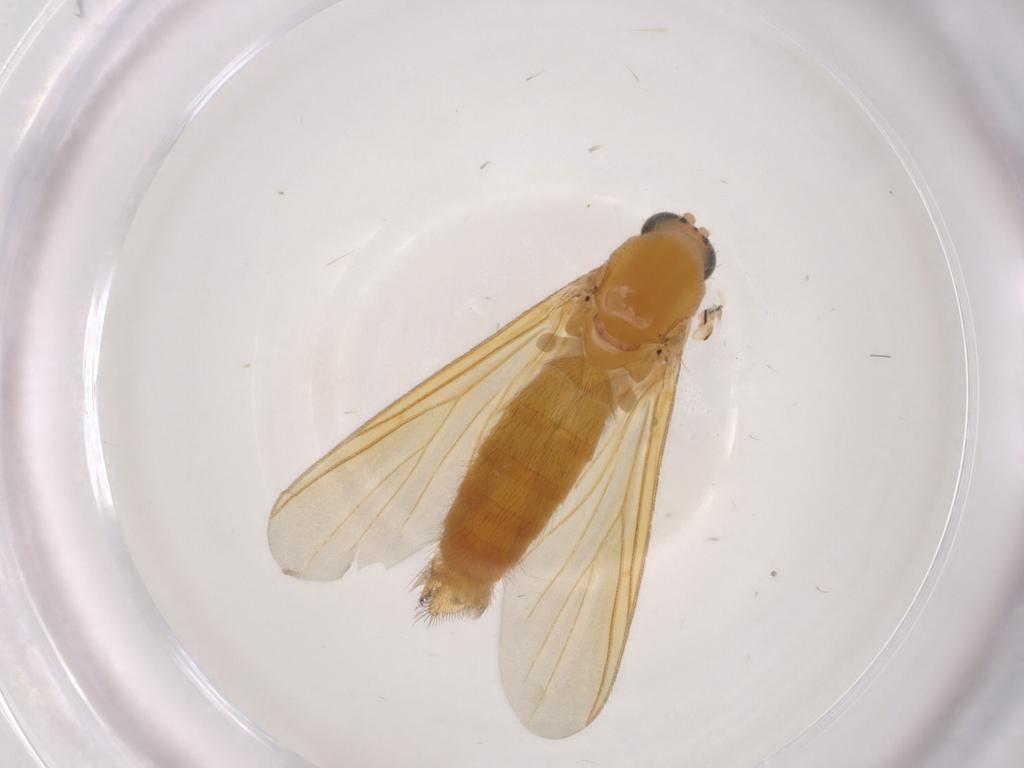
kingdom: Animalia
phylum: Arthropoda
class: Insecta
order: Diptera
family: Mycetophilidae
